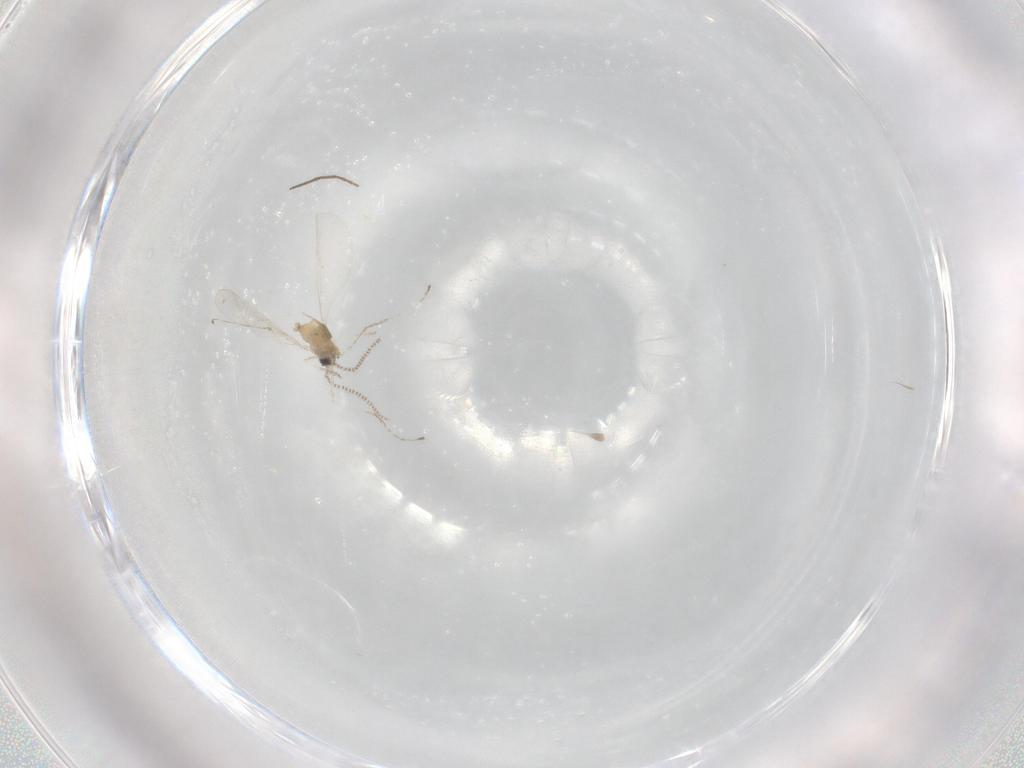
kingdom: Animalia
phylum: Arthropoda
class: Insecta
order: Diptera
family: Cecidomyiidae
